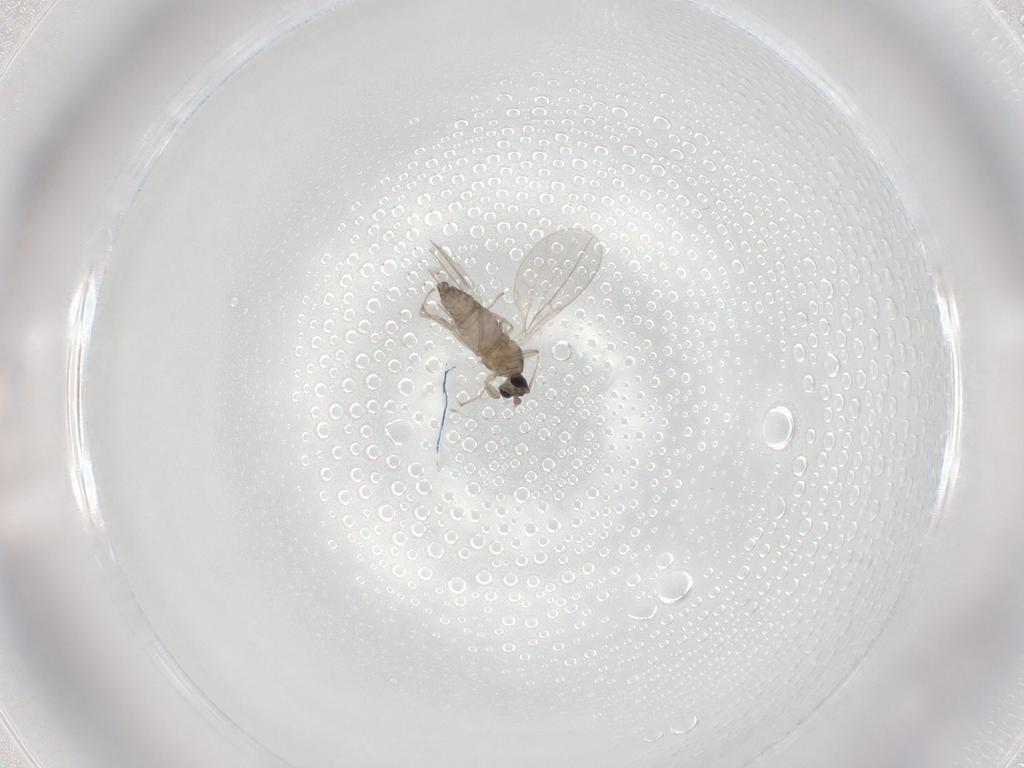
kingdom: Animalia
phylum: Arthropoda
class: Insecta
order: Diptera
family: Cecidomyiidae
